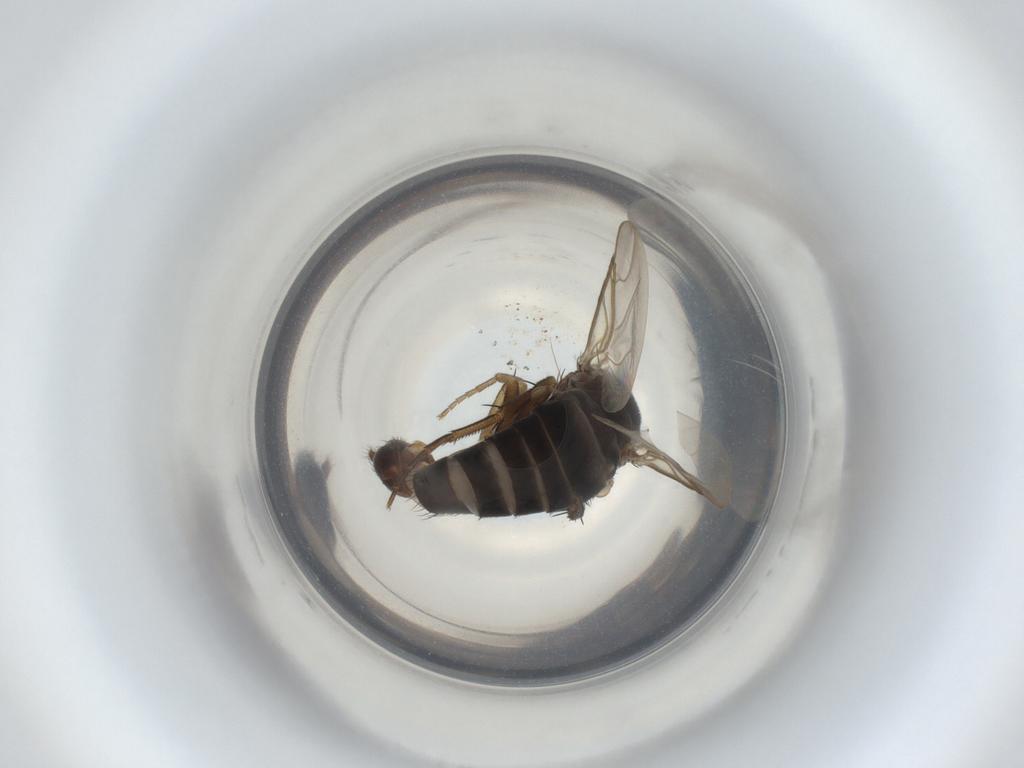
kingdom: Animalia
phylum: Arthropoda
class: Insecta
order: Diptera
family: Phoridae
